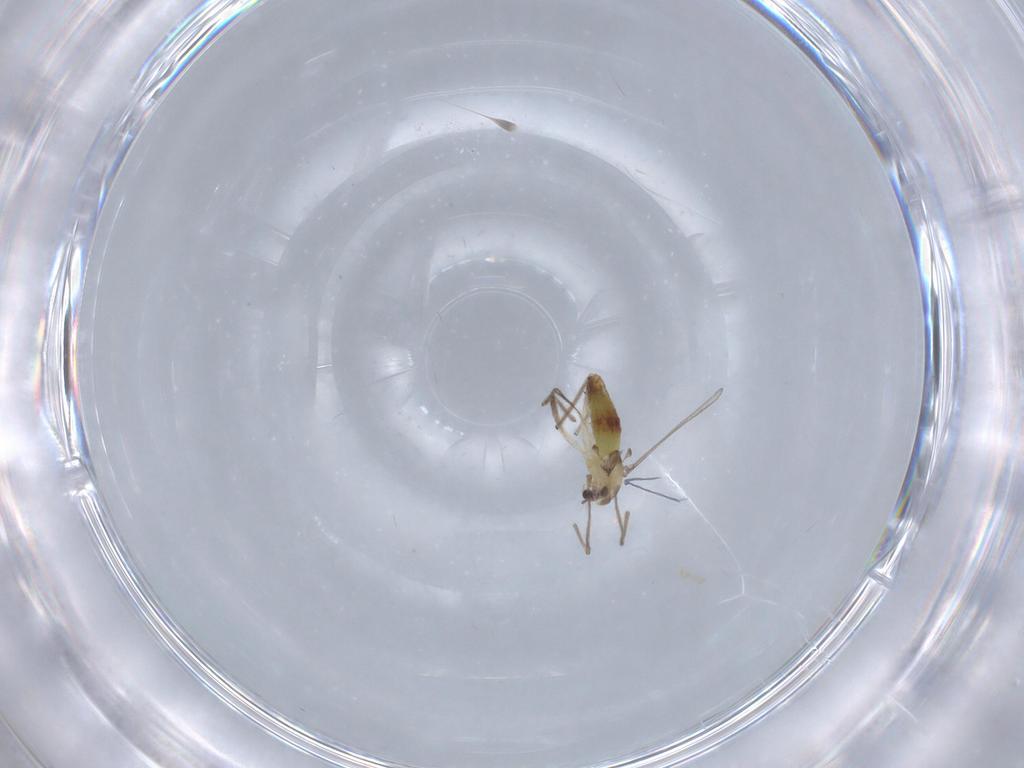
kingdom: Animalia
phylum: Arthropoda
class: Insecta
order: Diptera
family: Chironomidae
